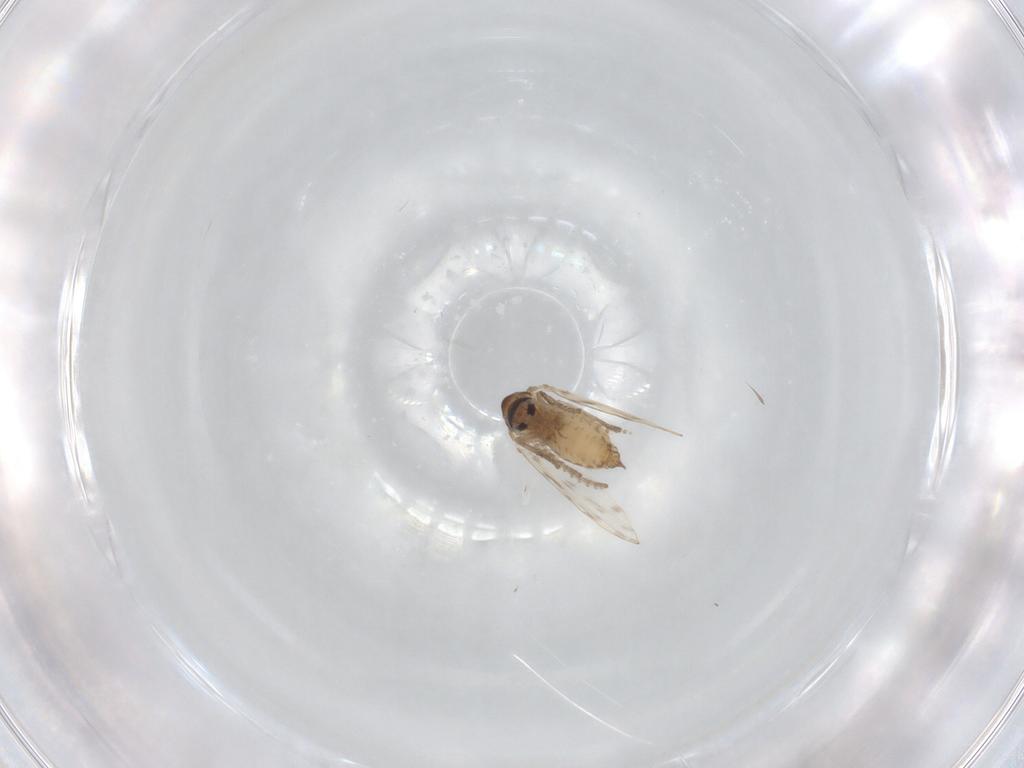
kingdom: Animalia
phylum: Arthropoda
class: Insecta
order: Diptera
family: Psychodidae
